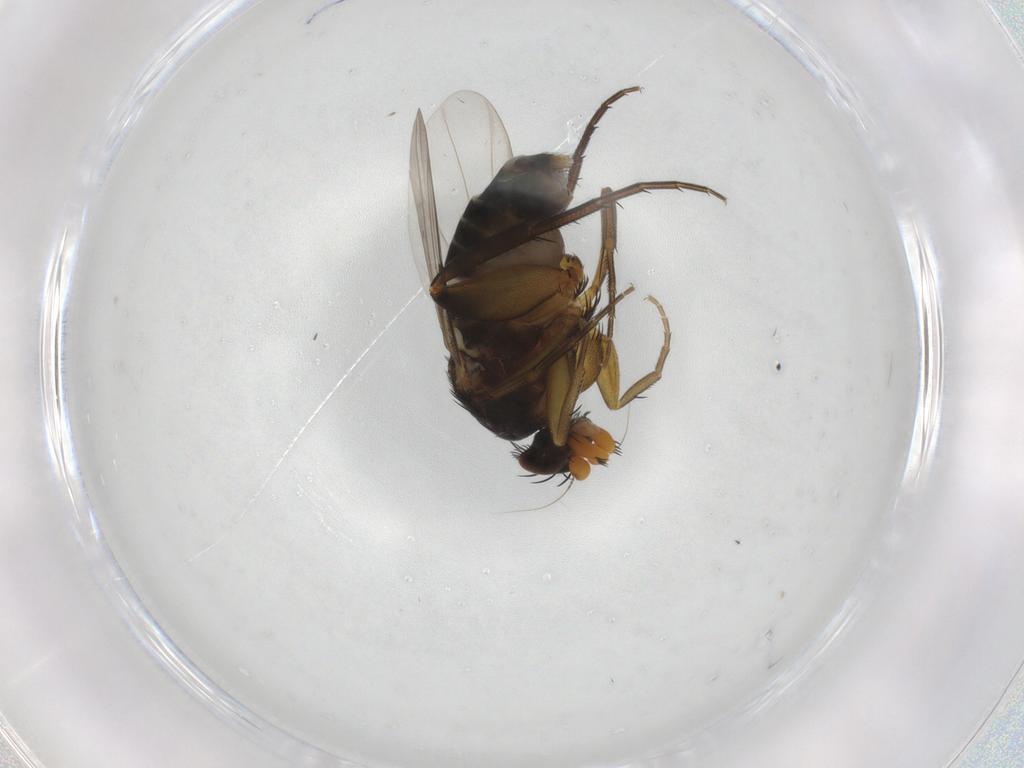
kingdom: Animalia
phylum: Arthropoda
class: Insecta
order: Diptera
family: Phoridae
